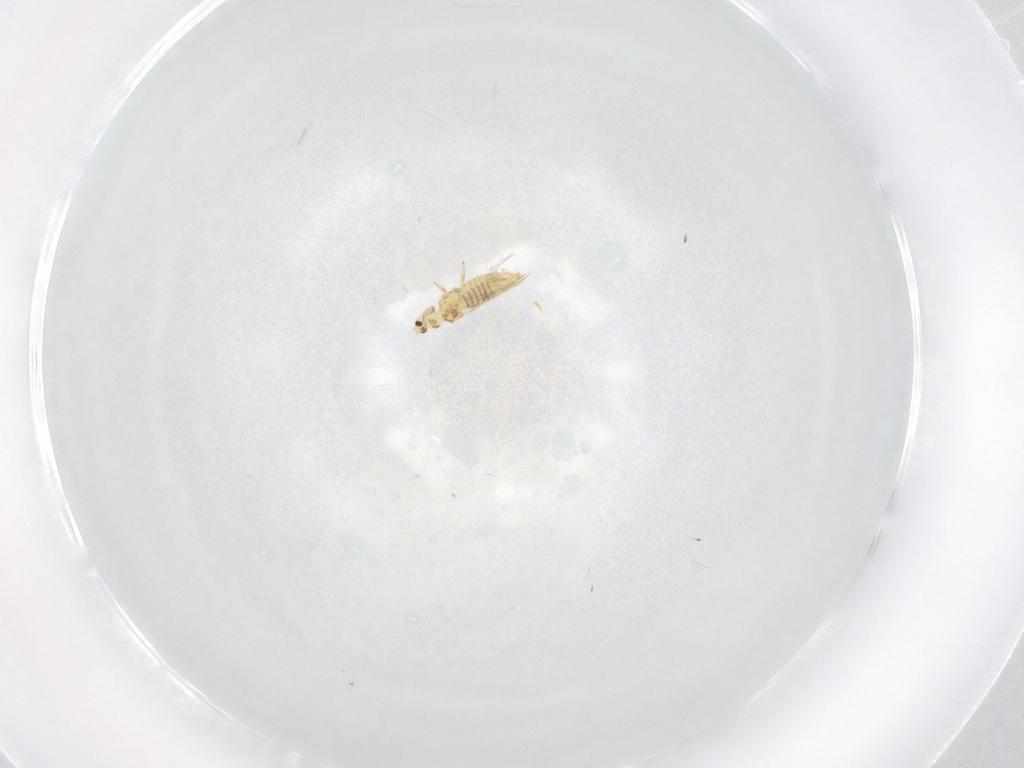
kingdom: Animalia
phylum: Arthropoda
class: Insecta
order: Thysanoptera
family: Thripidae
